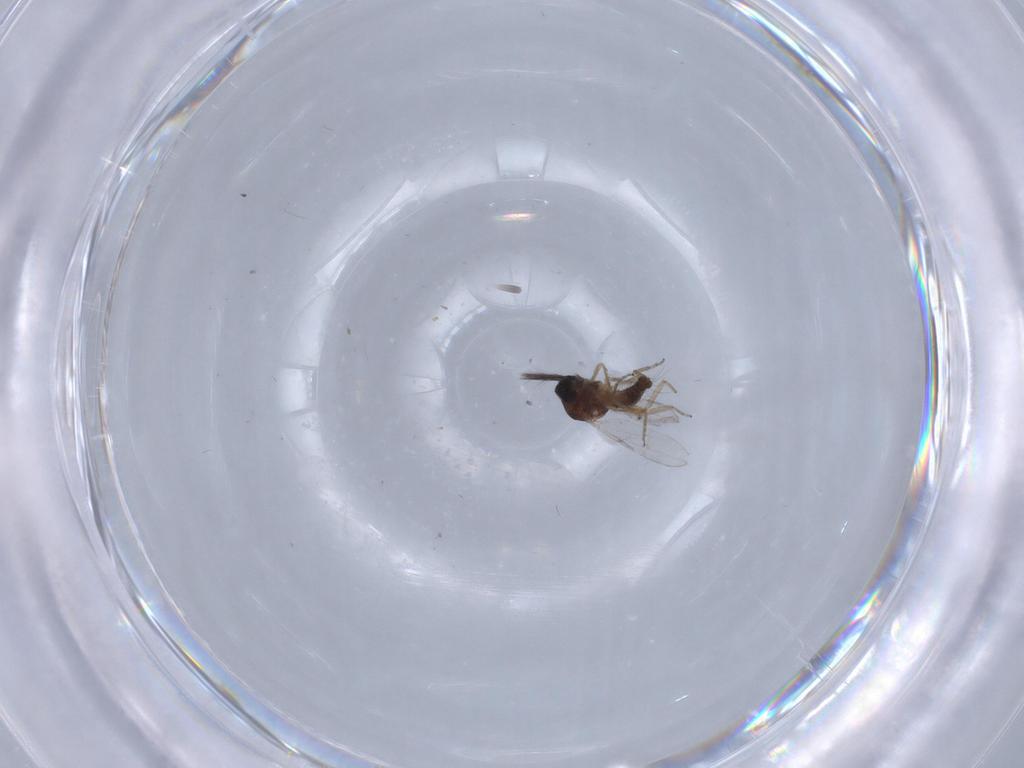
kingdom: Animalia
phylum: Arthropoda
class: Insecta
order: Diptera
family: Ceratopogonidae
